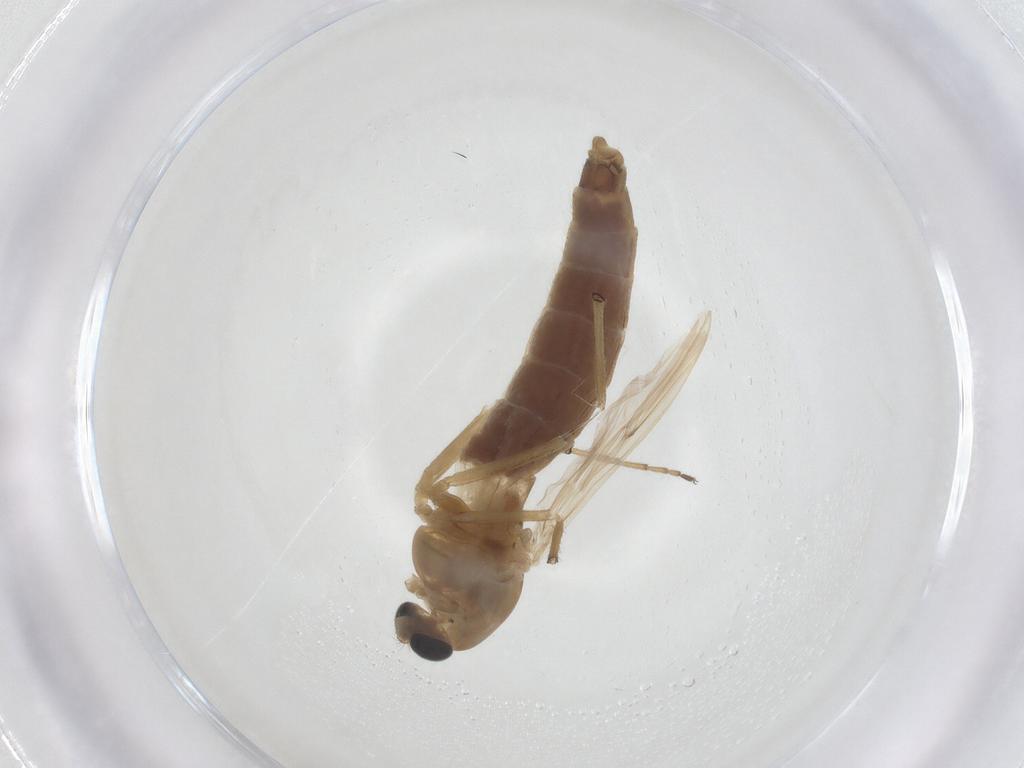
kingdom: Animalia
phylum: Arthropoda
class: Insecta
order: Diptera
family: Chironomidae
